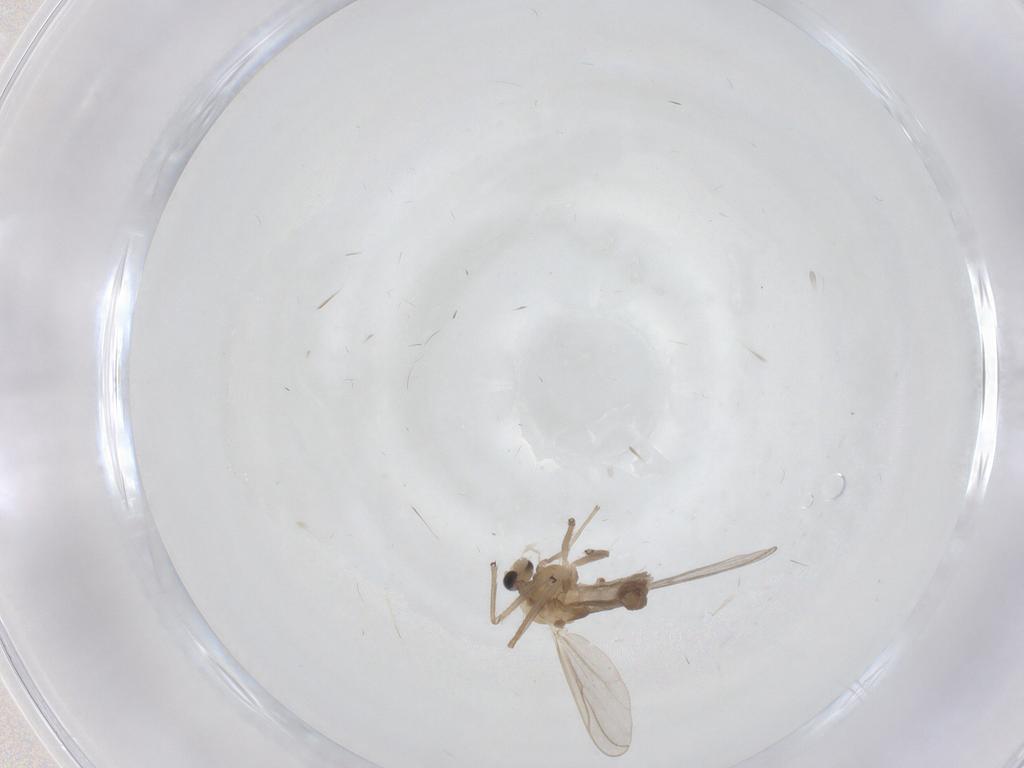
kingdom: Animalia
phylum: Arthropoda
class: Insecta
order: Diptera
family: Chironomidae
